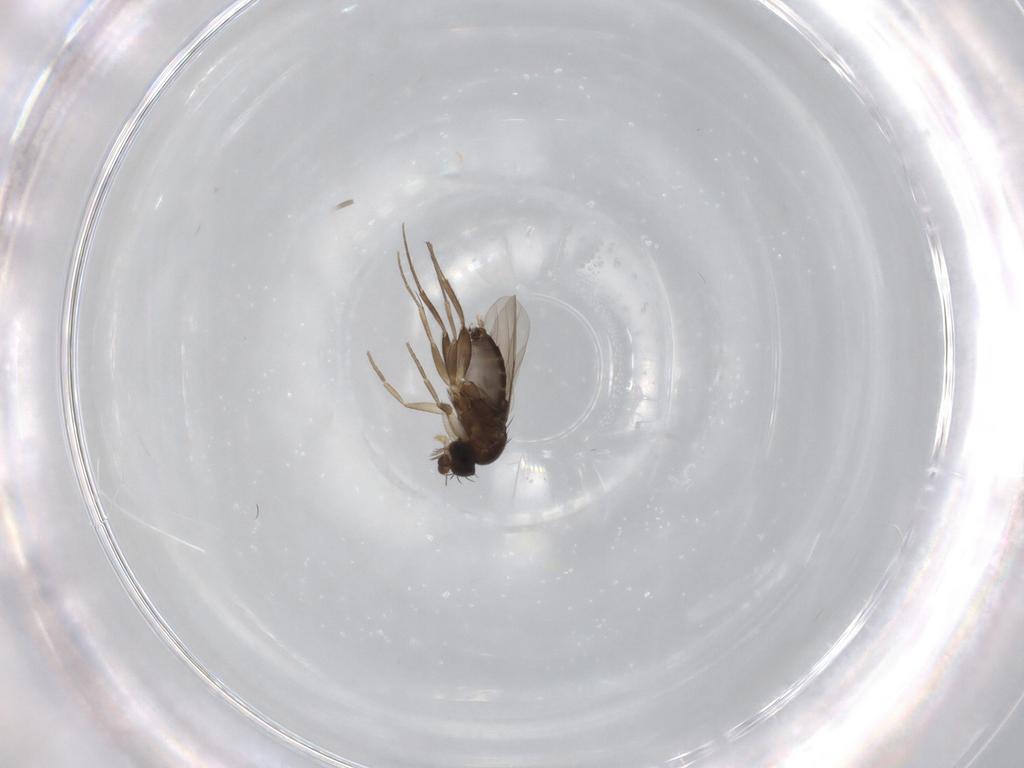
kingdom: Animalia
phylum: Arthropoda
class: Insecta
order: Diptera
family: Phoridae
